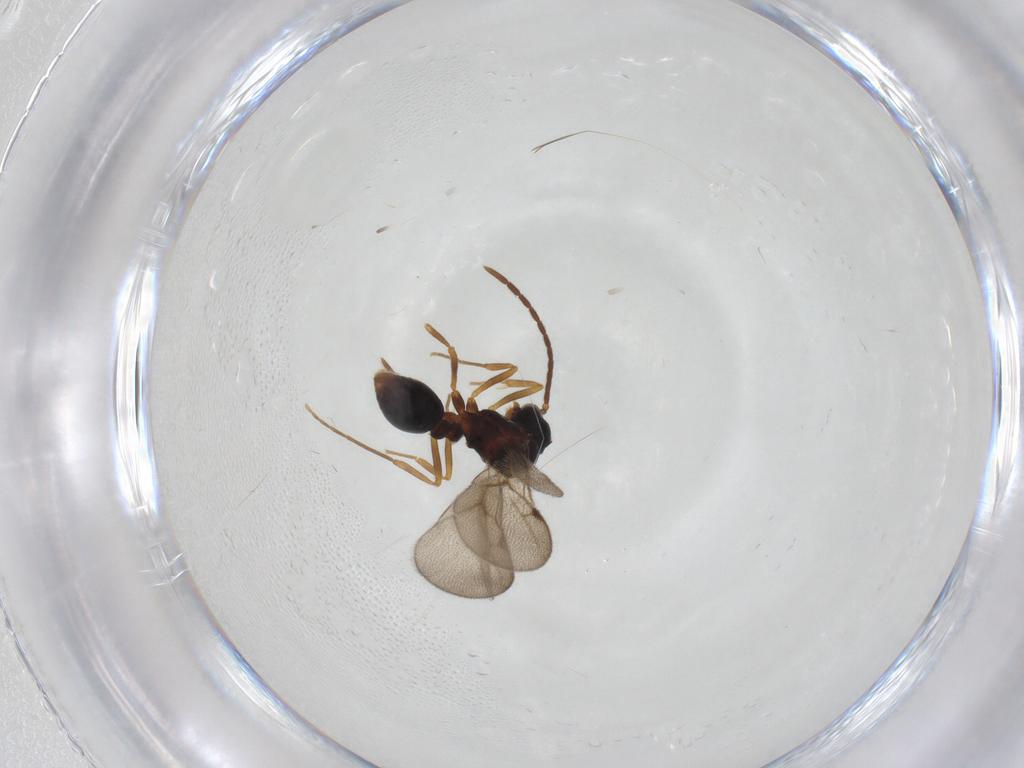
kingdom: Animalia
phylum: Arthropoda
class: Insecta
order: Hymenoptera
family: Formicidae
